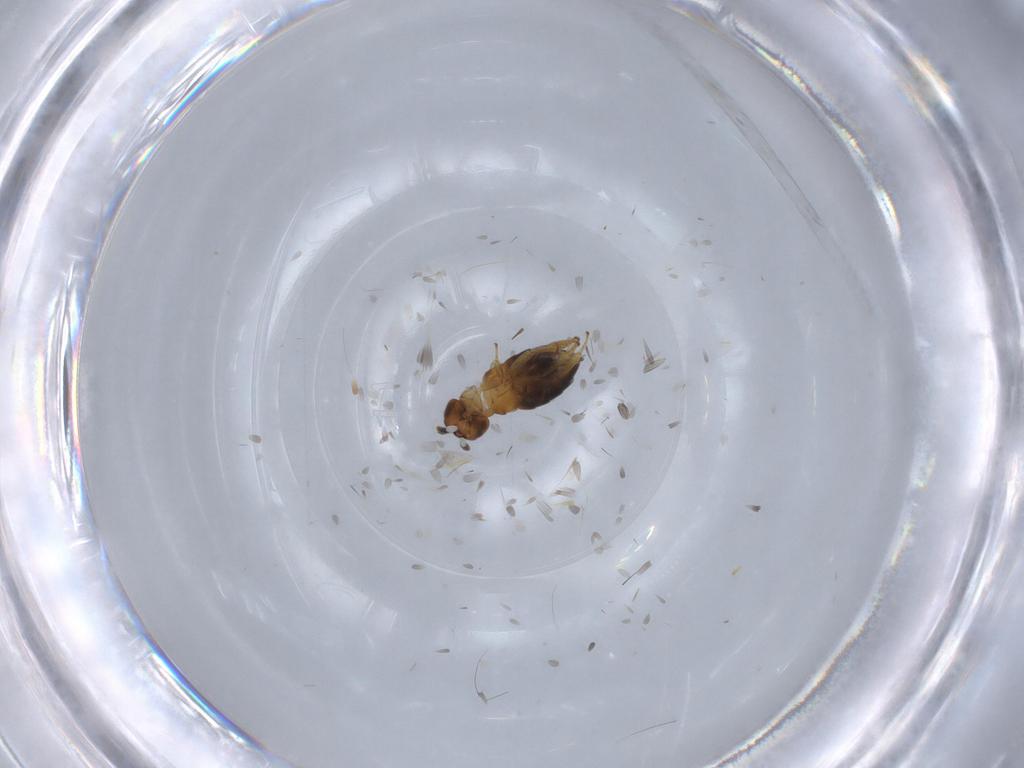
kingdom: Animalia
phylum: Arthropoda
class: Insecta
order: Hymenoptera
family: Encyrtidae
